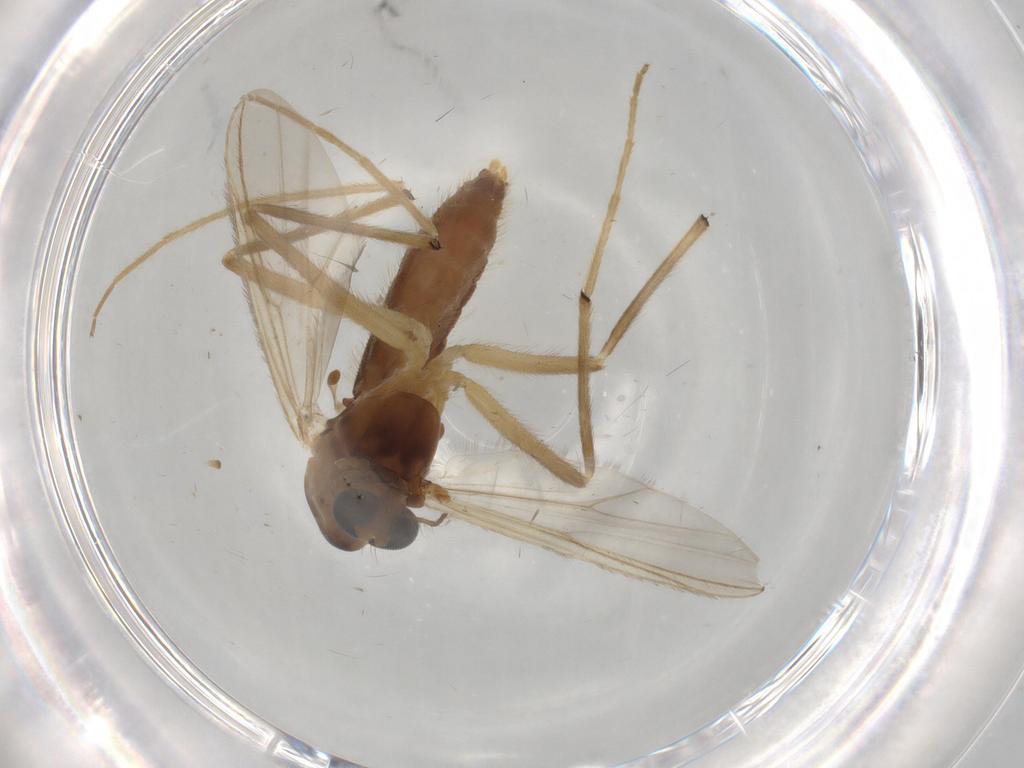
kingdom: Animalia
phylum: Arthropoda
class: Insecta
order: Diptera
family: Chironomidae
